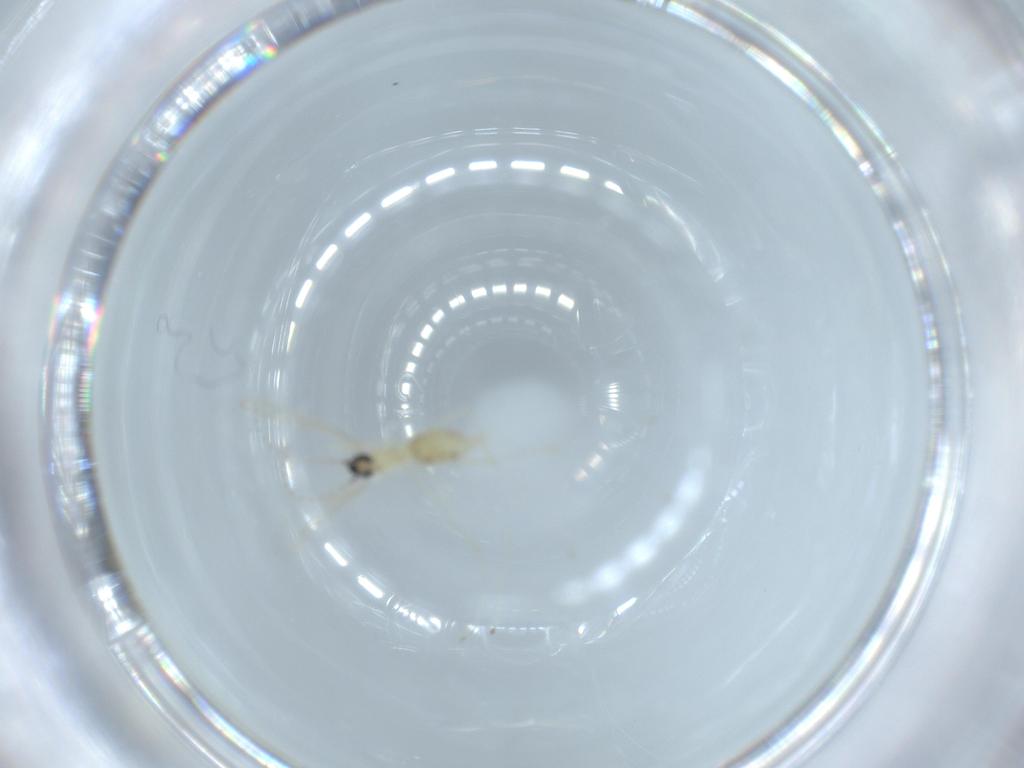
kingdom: Animalia
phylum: Arthropoda
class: Insecta
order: Diptera
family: Cecidomyiidae
